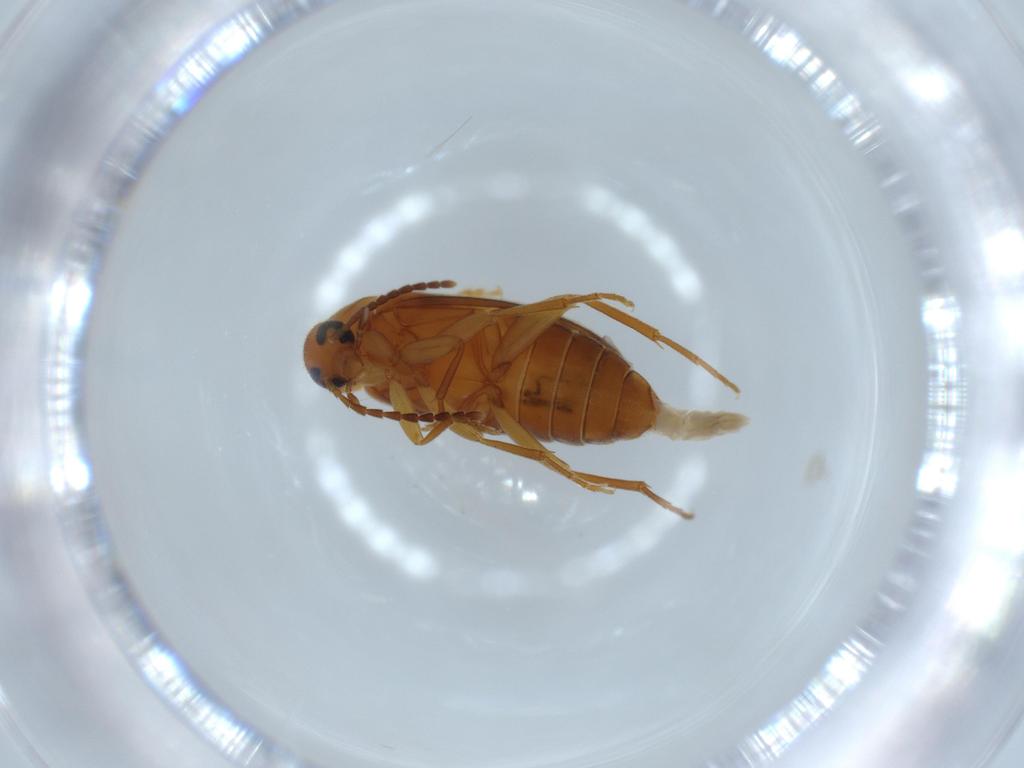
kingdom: Animalia
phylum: Arthropoda
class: Insecta
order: Coleoptera
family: Scraptiidae
